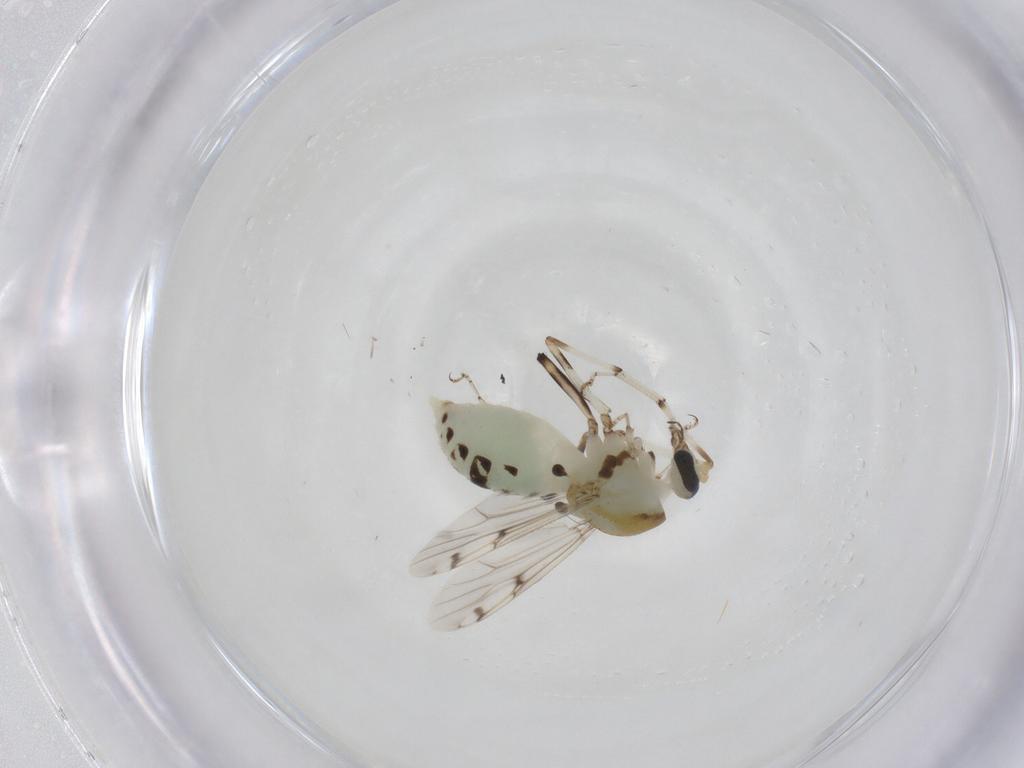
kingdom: Animalia
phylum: Arthropoda
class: Insecta
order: Diptera
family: Ceratopogonidae
